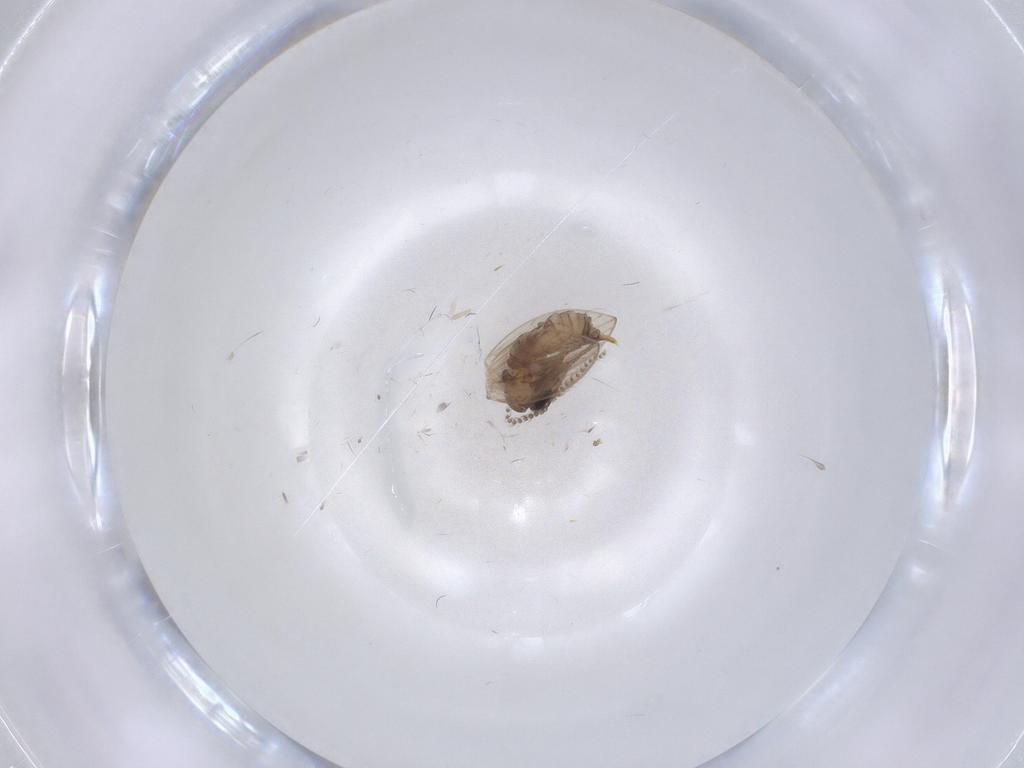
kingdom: Animalia
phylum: Arthropoda
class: Insecta
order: Diptera
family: Psychodidae
